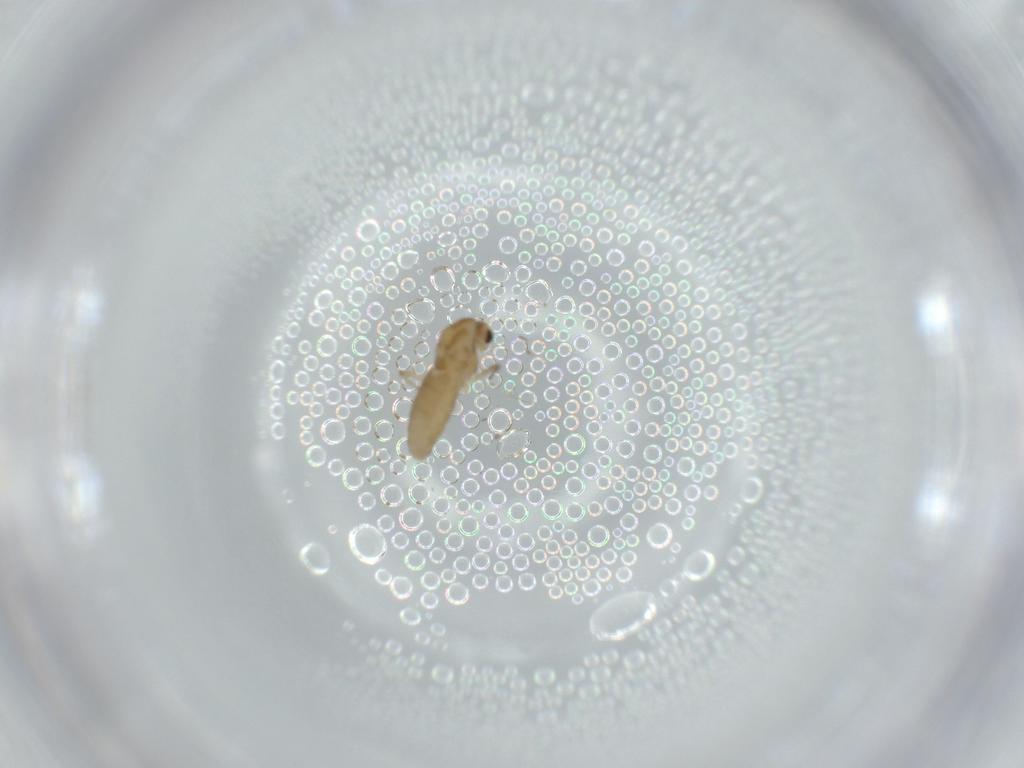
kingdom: Animalia
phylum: Arthropoda
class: Insecta
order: Diptera
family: Chironomidae
